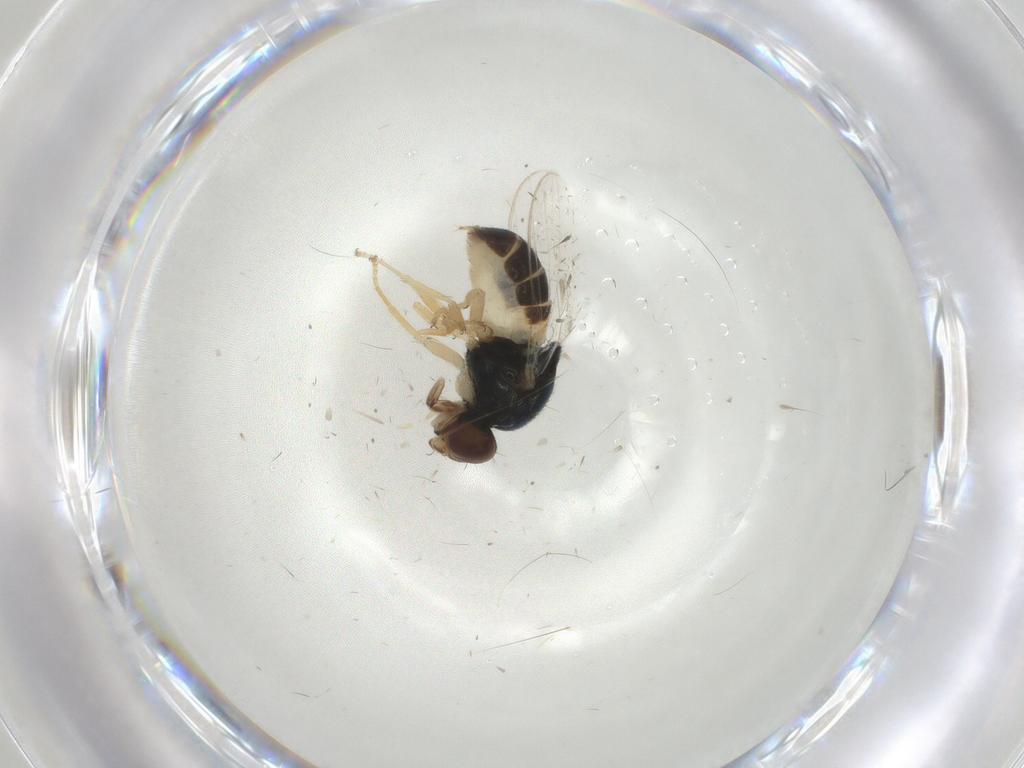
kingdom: Animalia
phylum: Arthropoda
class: Insecta
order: Diptera
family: Chloropidae
